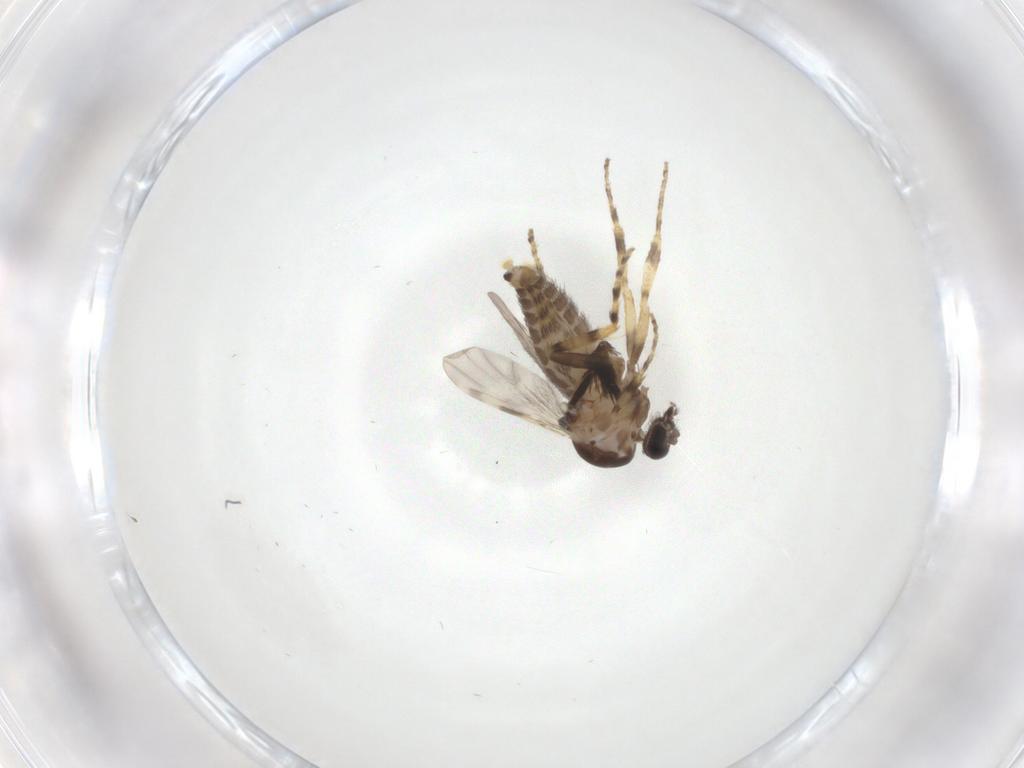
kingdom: Animalia
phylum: Arthropoda
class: Insecta
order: Diptera
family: Ceratopogonidae
